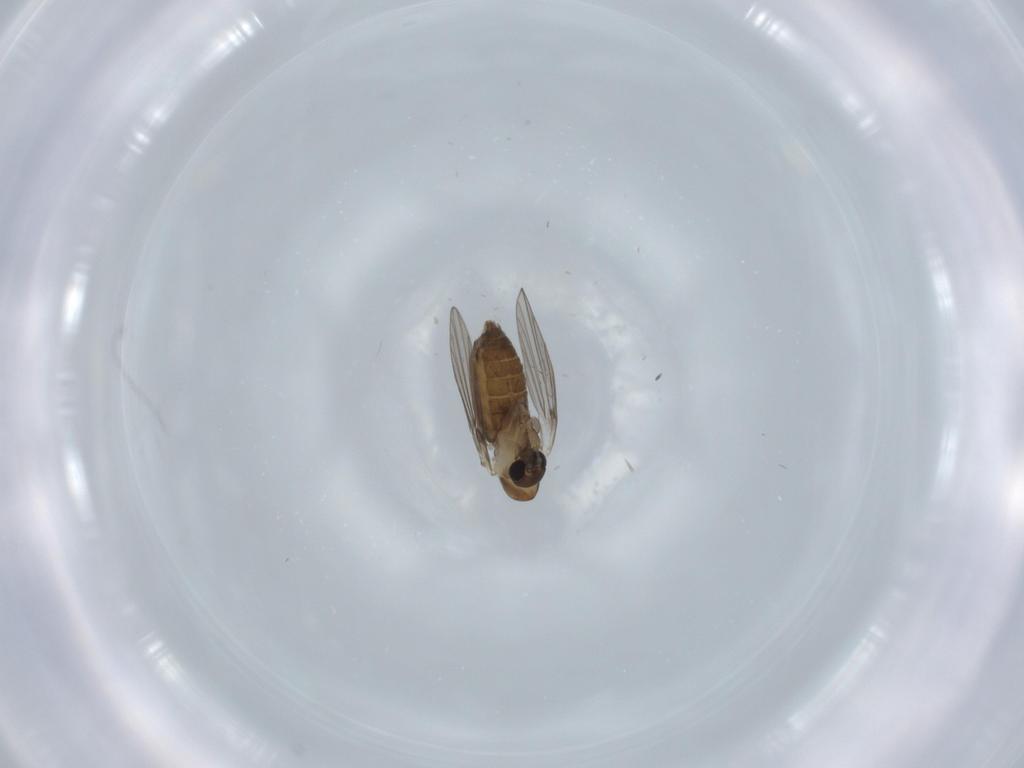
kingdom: Animalia
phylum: Arthropoda
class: Insecta
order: Diptera
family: Psychodidae
